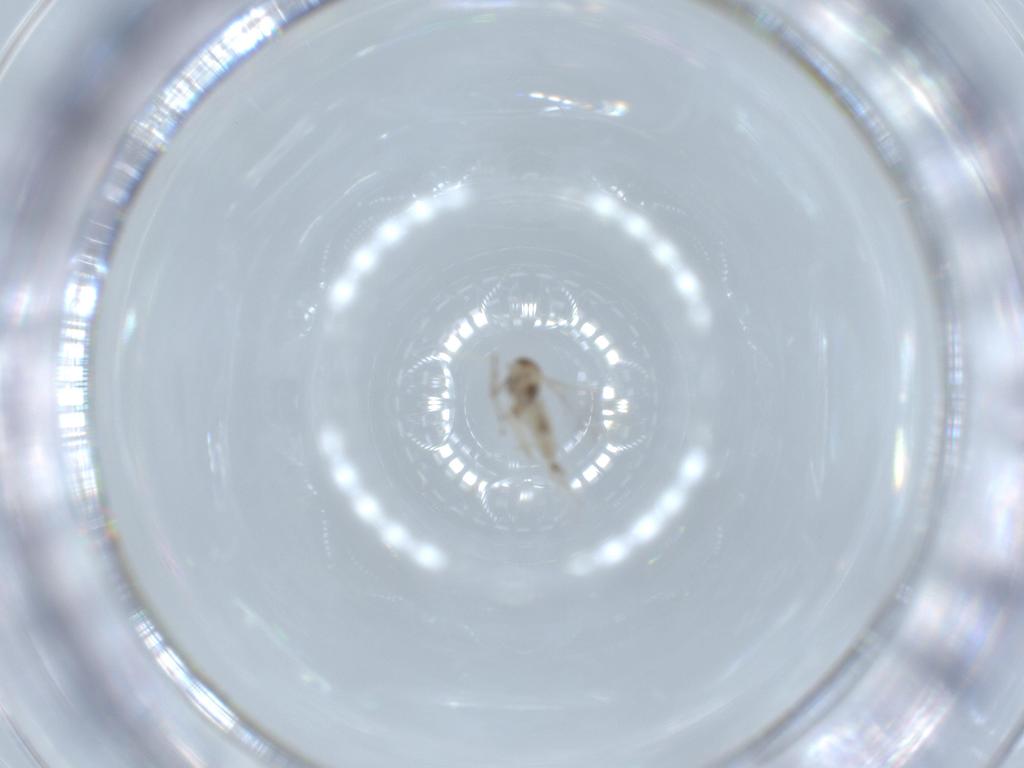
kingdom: Animalia
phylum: Arthropoda
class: Insecta
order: Diptera
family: Cecidomyiidae
